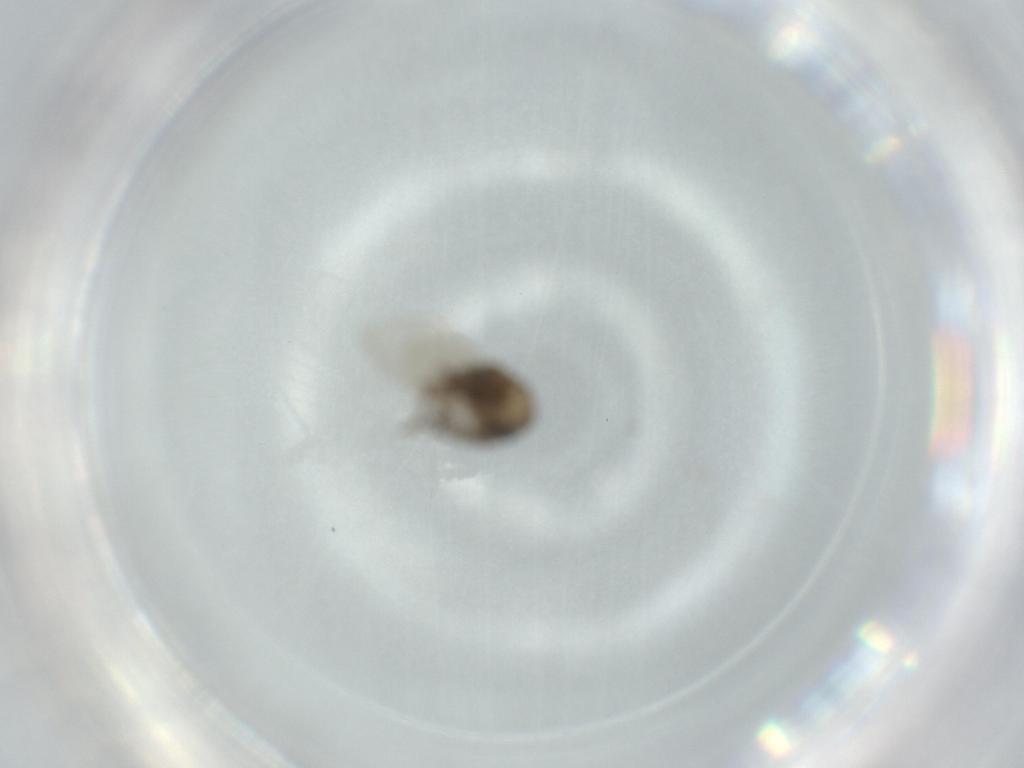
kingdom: Animalia
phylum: Arthropoda
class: Insecta
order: Diptera
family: Psychodidae
